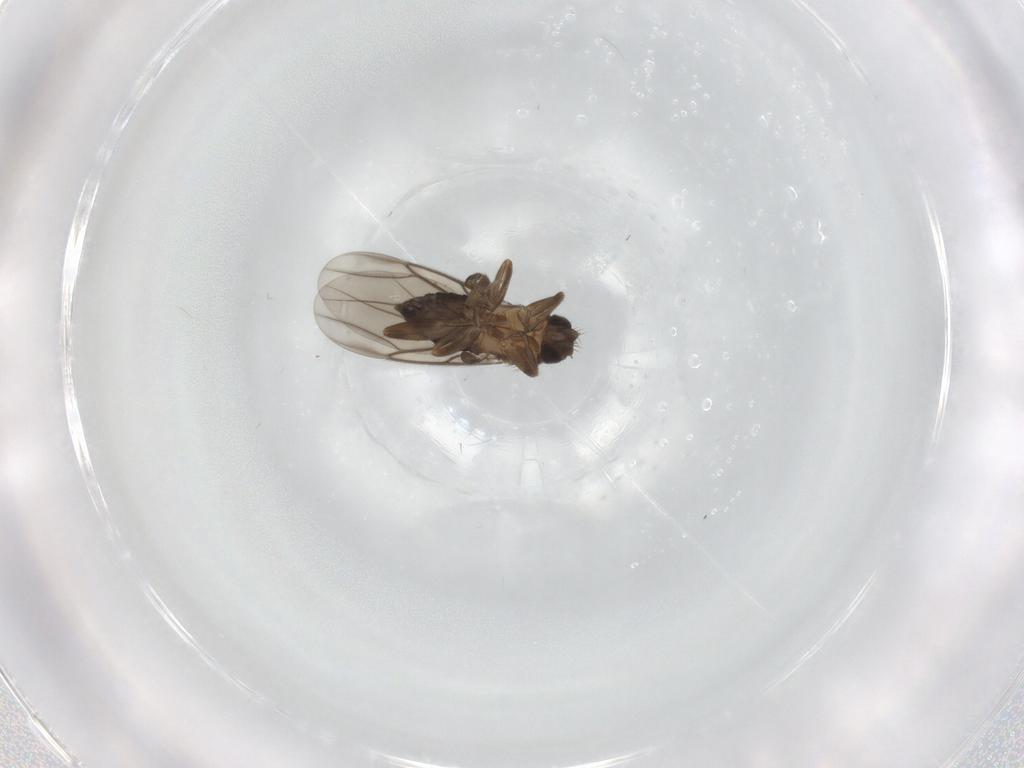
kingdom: Animalia
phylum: Arthropoda
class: Insecta
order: Diptera
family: Phoridae
